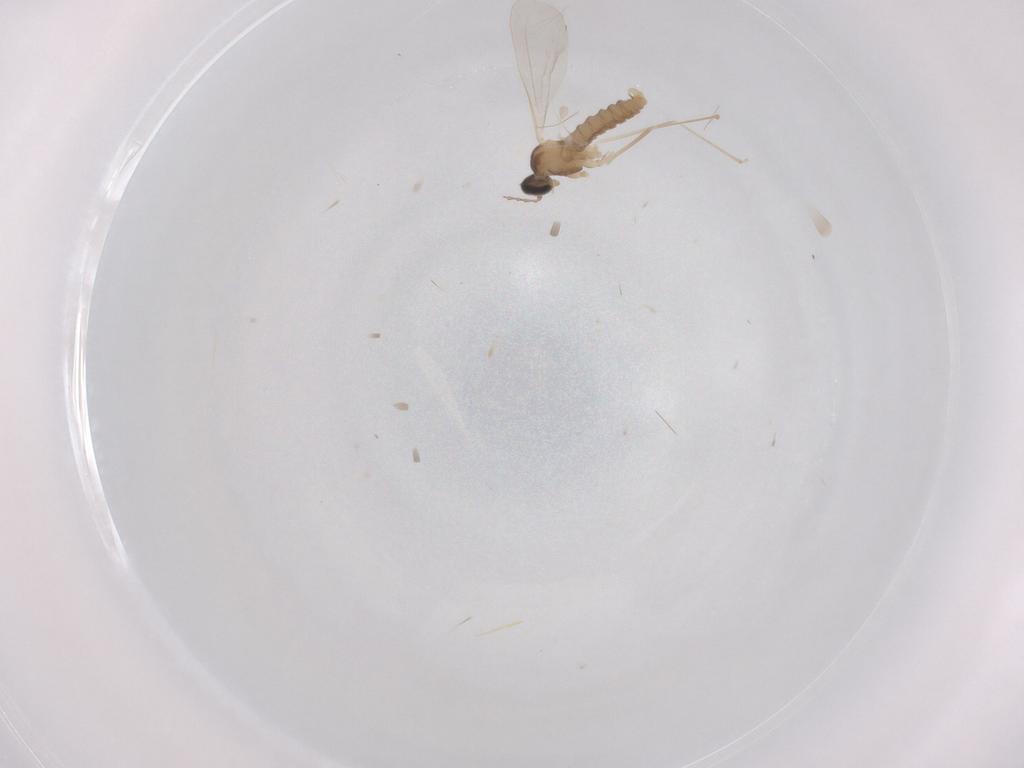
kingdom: Animalia
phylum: Arthropoda
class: Insecta
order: Diptera
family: Cecidomyiidae
